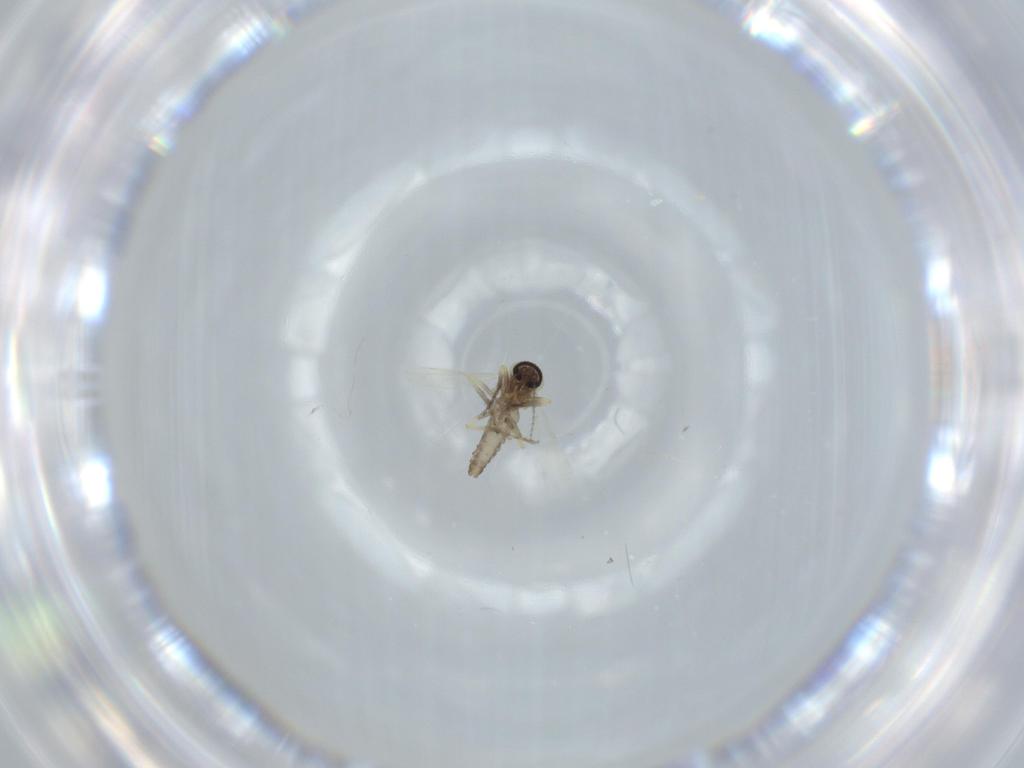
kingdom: Animalia
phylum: Arthropoda
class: Insecta
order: Diptera
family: Ceratopogonidae
